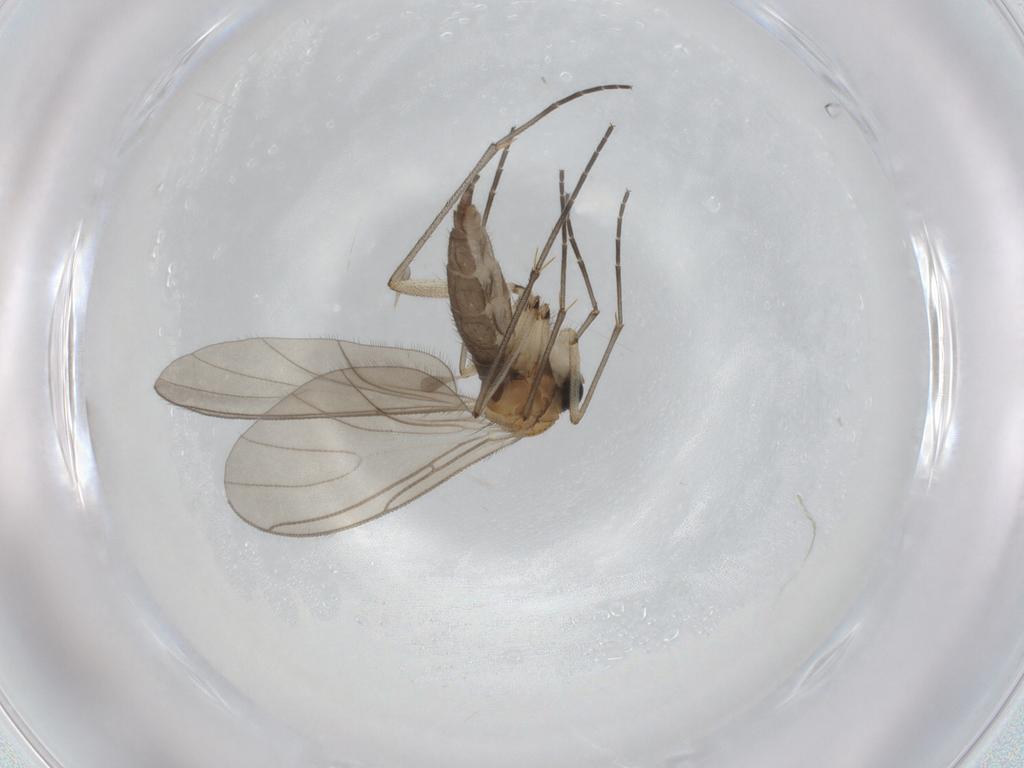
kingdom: Animalia
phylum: Arthropoda
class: Insecta
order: Diptera
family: Sciaridae
